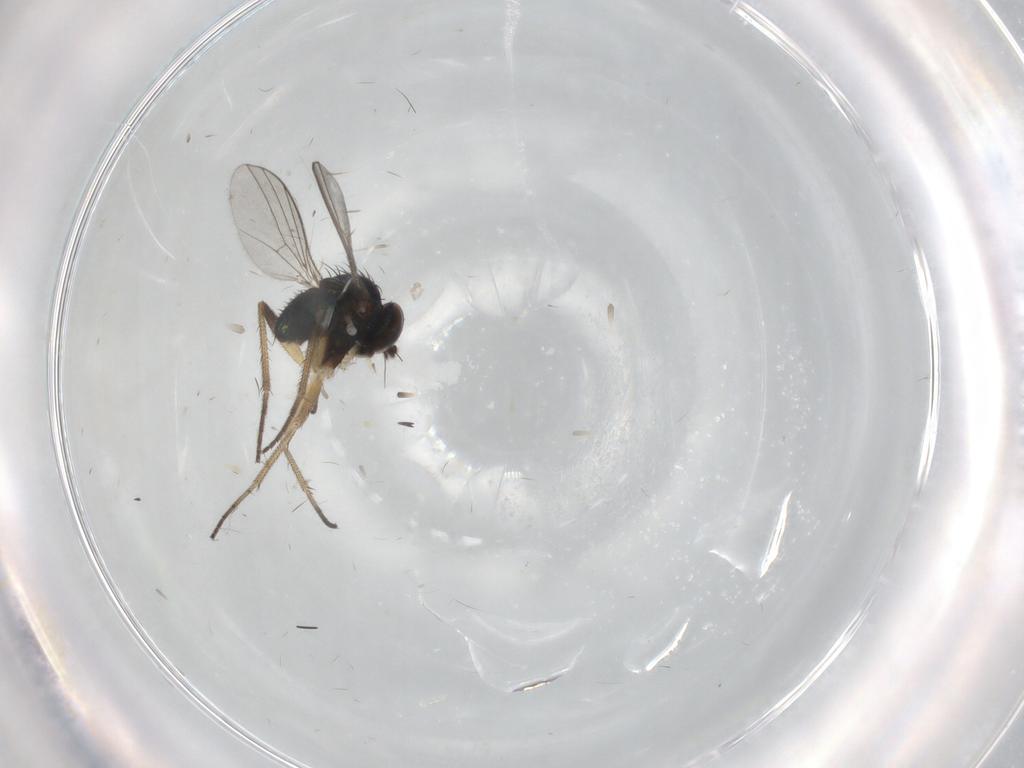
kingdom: Animalia
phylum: Arthropoda
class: Insecta
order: Diptera
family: Dolichopodidae
